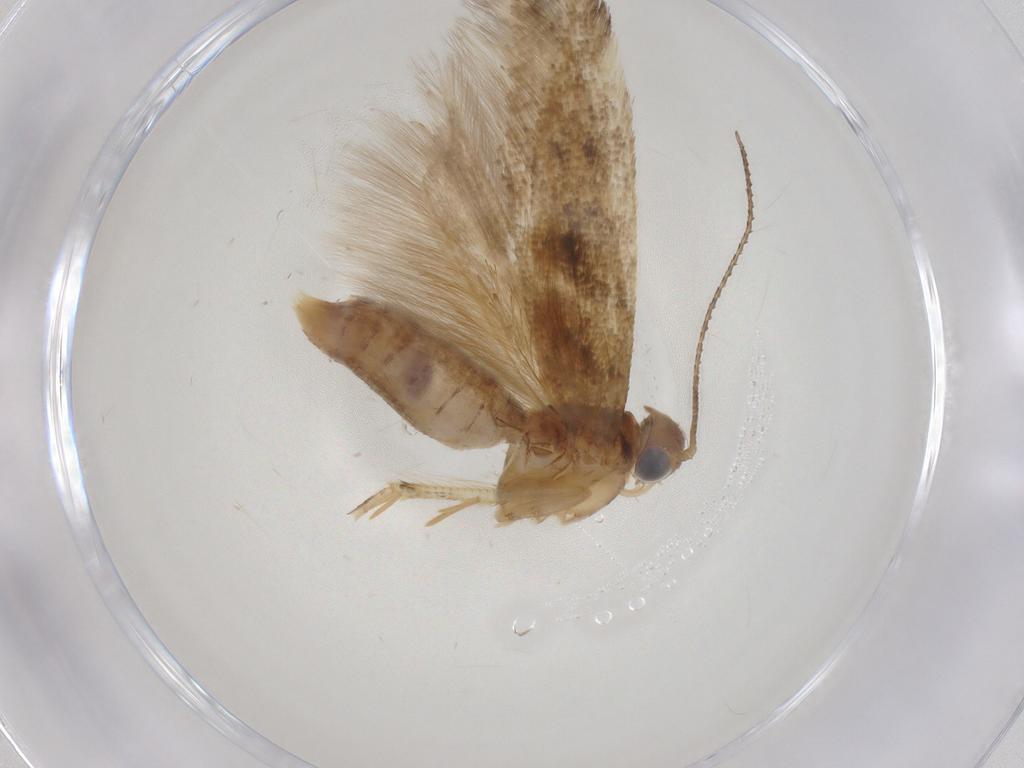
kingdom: Animalia
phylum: Arthropoda
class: Insecta
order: Lepidoptera
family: Gelechiidae
